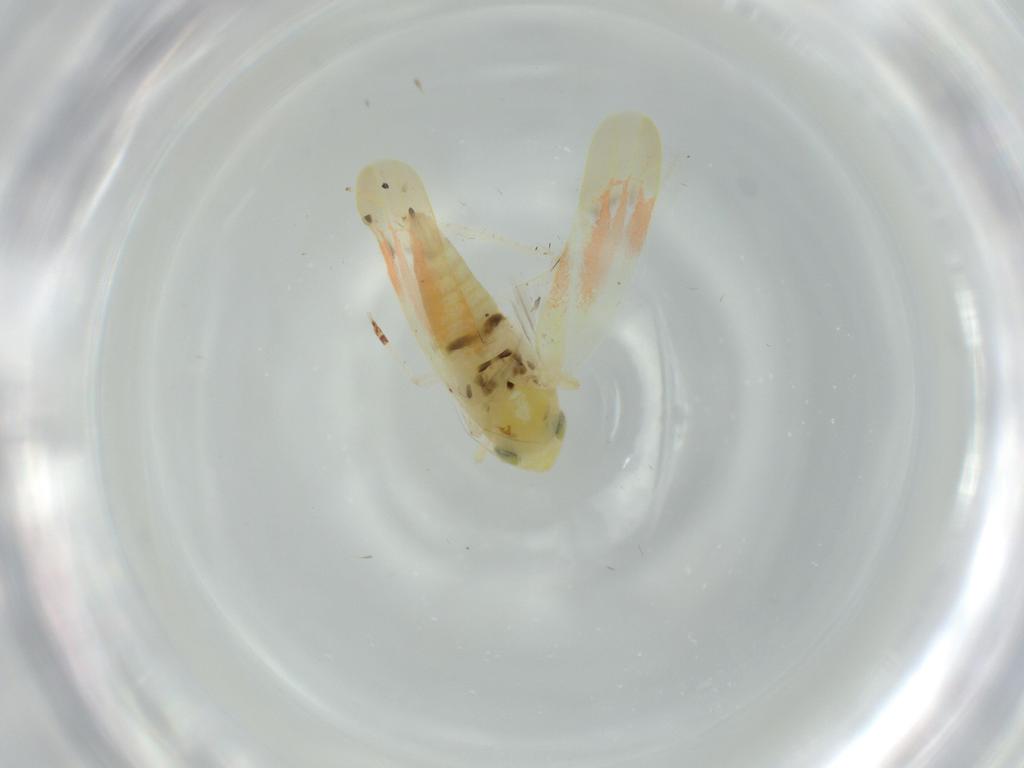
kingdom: Animalia
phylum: Arthropoda
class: Insecta
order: Hemiptera
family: Cicadellidae
